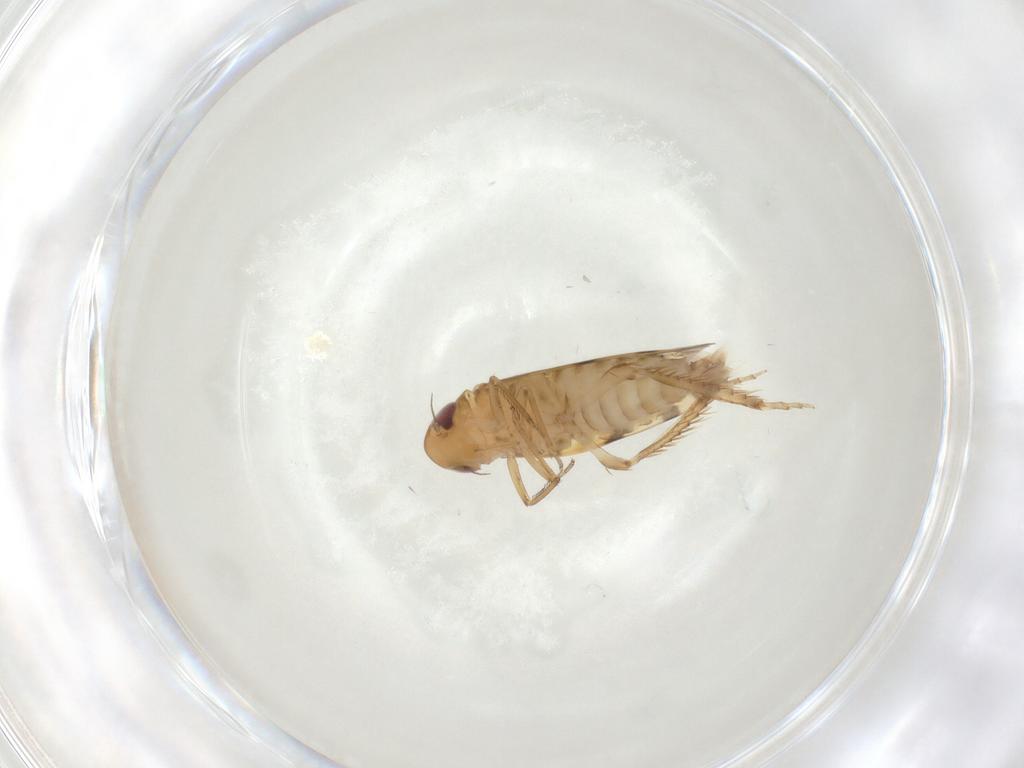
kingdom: Animalia
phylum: Arthropoda
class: Insecta
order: Hemiptera
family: Cicadellidae
